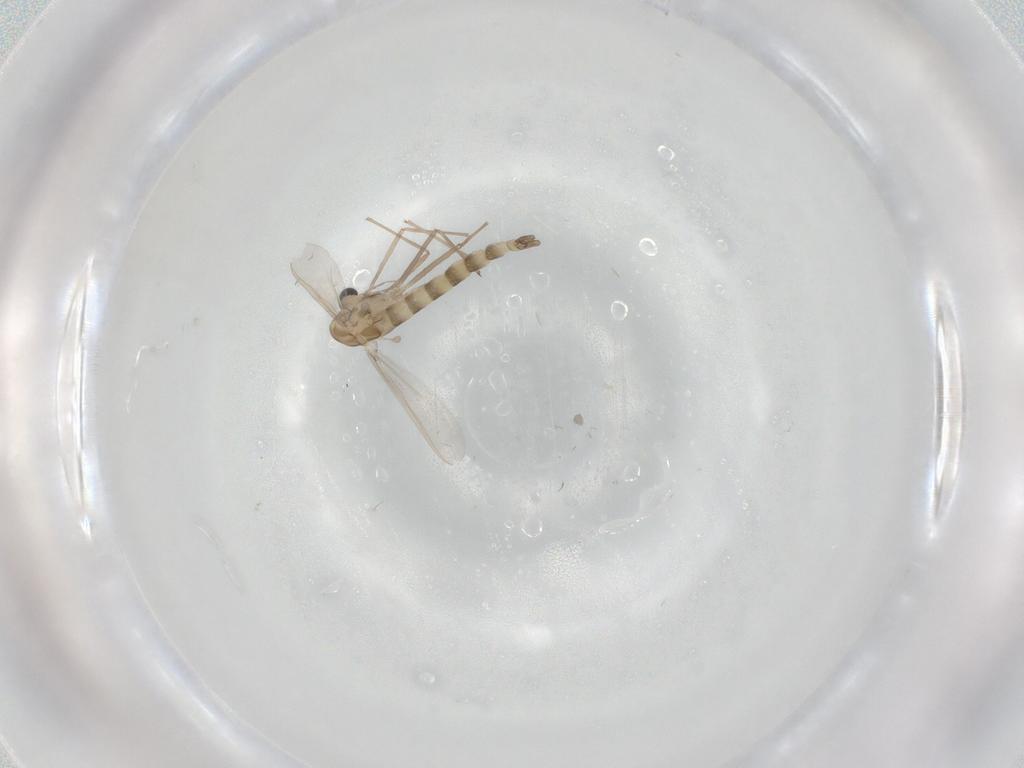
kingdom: Animalia
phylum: Arthropoda
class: Insecta
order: Diptera
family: Chironomidae
